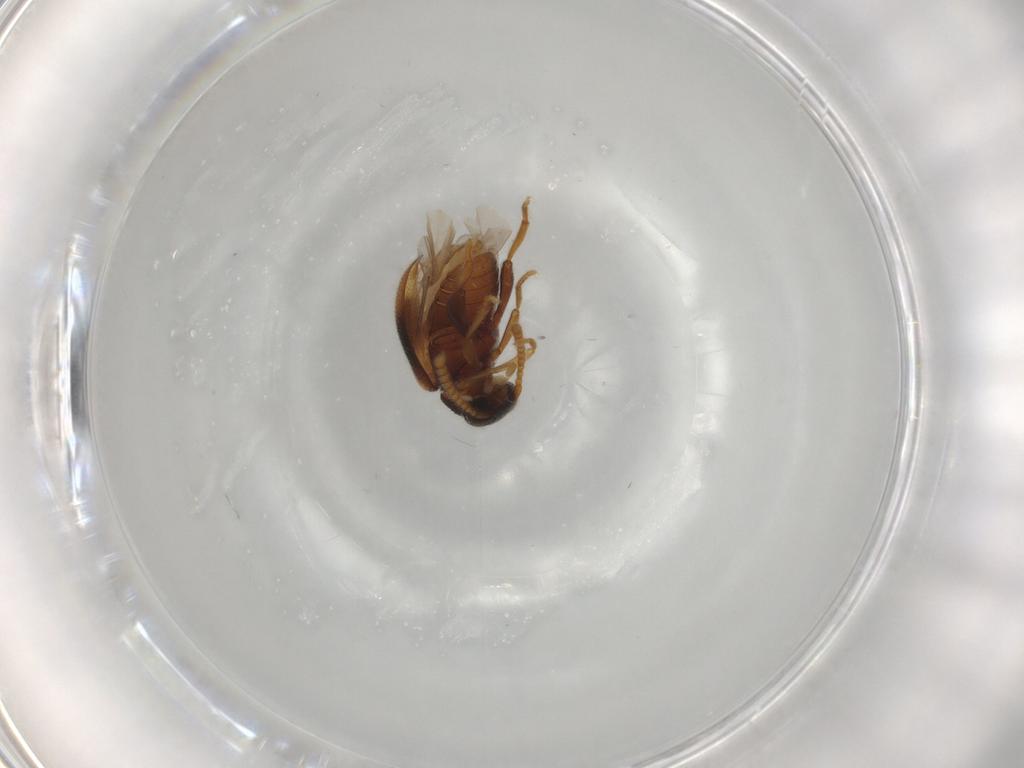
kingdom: Animalia
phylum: Arthropoda
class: Insecta
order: Coleoptera
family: Aderidae
